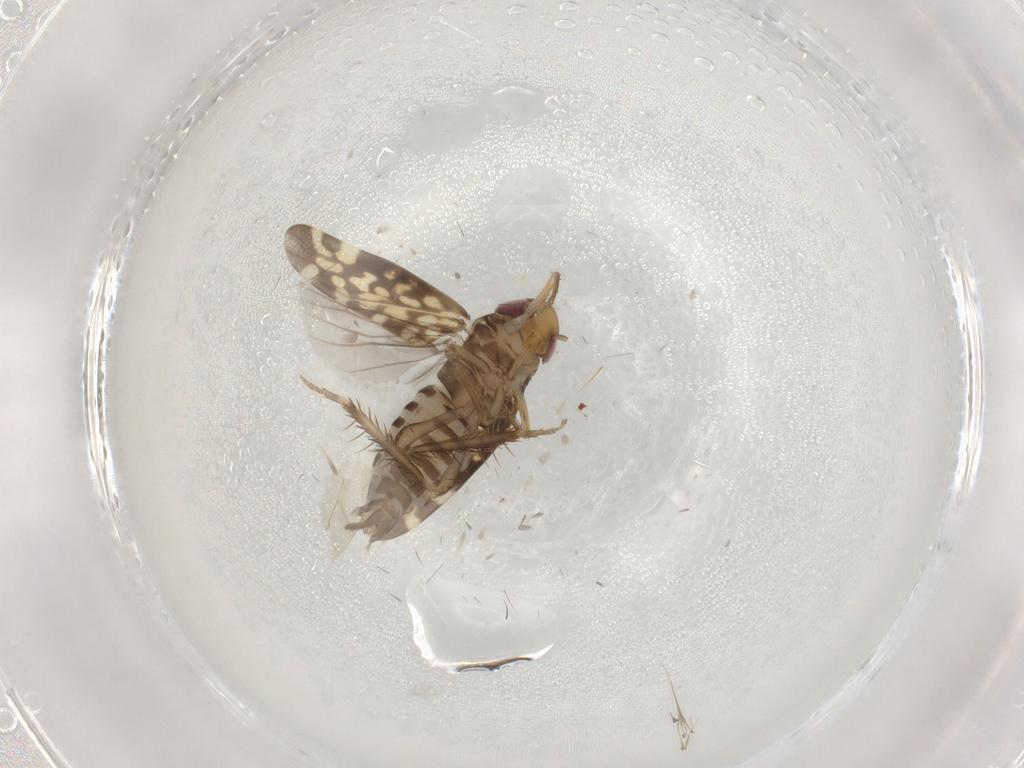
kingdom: Animalia
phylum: Arthropoda
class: Insecta
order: Hemiptera
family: Cicadellidae
